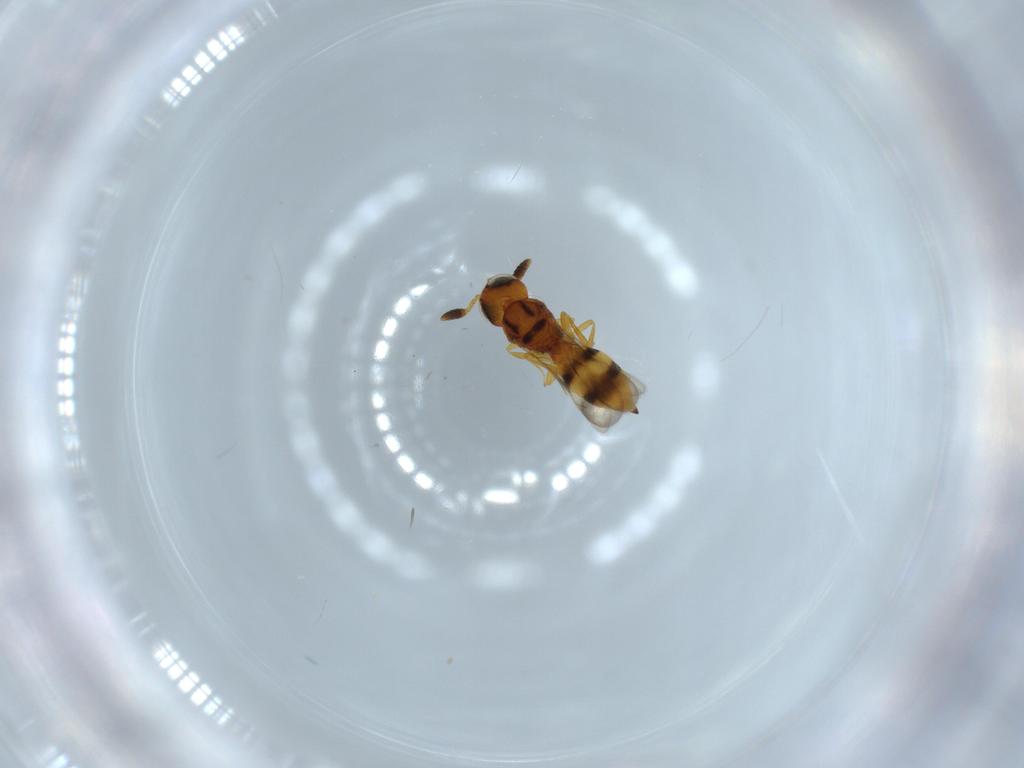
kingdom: Animalia
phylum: Arthropoda
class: Insecta
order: Hymenoptera
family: Scelionidae
